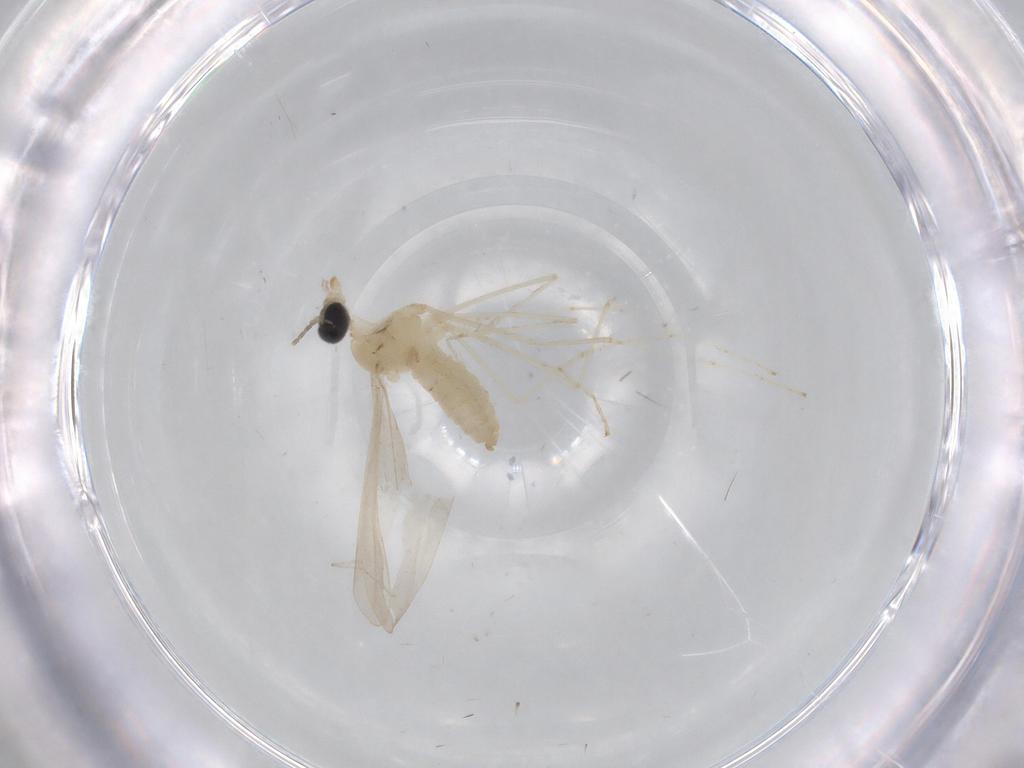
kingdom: Animalia
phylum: Arthropoda
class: Insecta
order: Diptera
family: Cecidomyiidae
